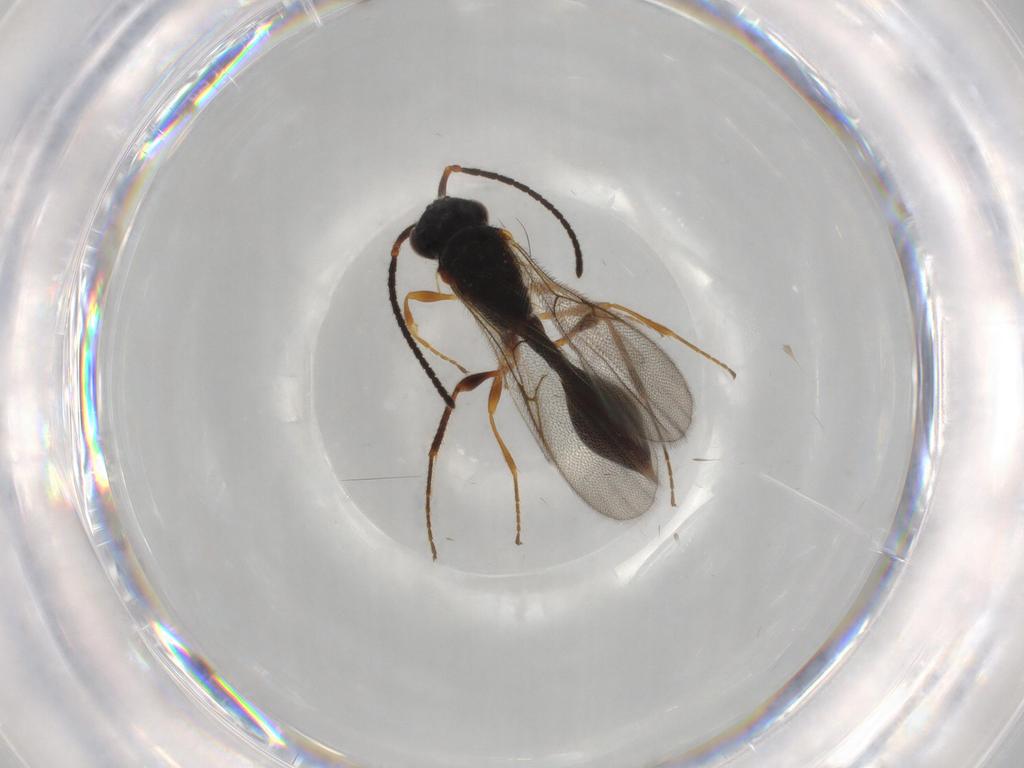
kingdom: Animalia
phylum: Arthropoda
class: Insecta
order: Hymenoptera
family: Diapriidae
